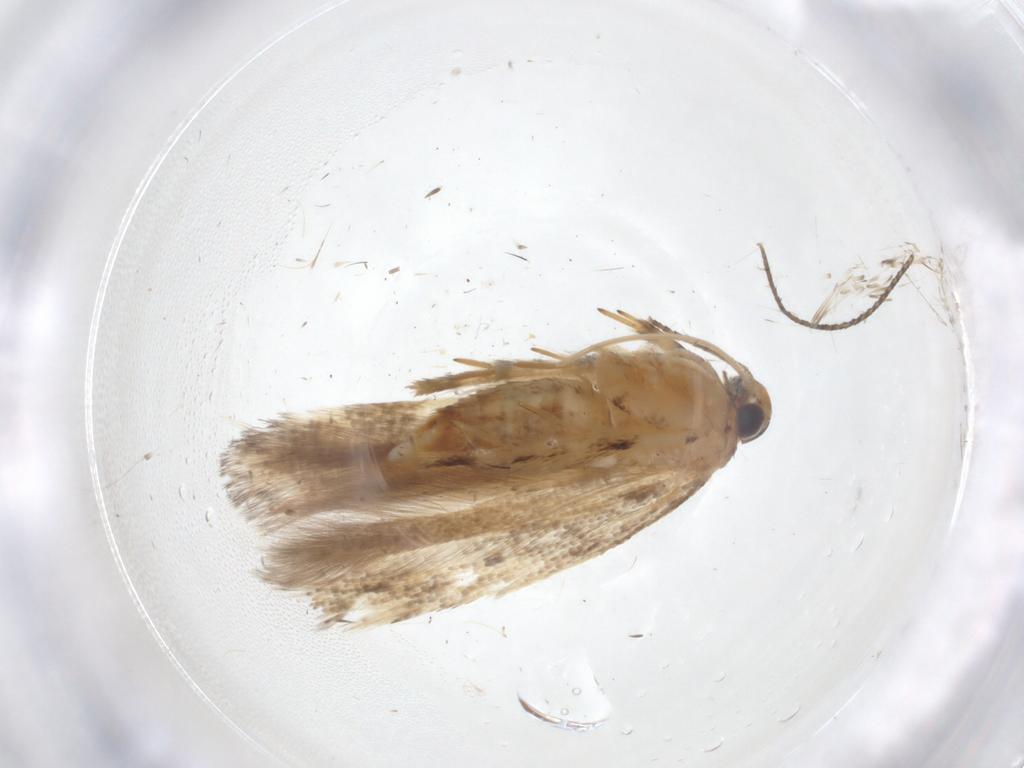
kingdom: Animalia
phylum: Arthropoda
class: Insecta
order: Lepidoptera
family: Gelechiidae
